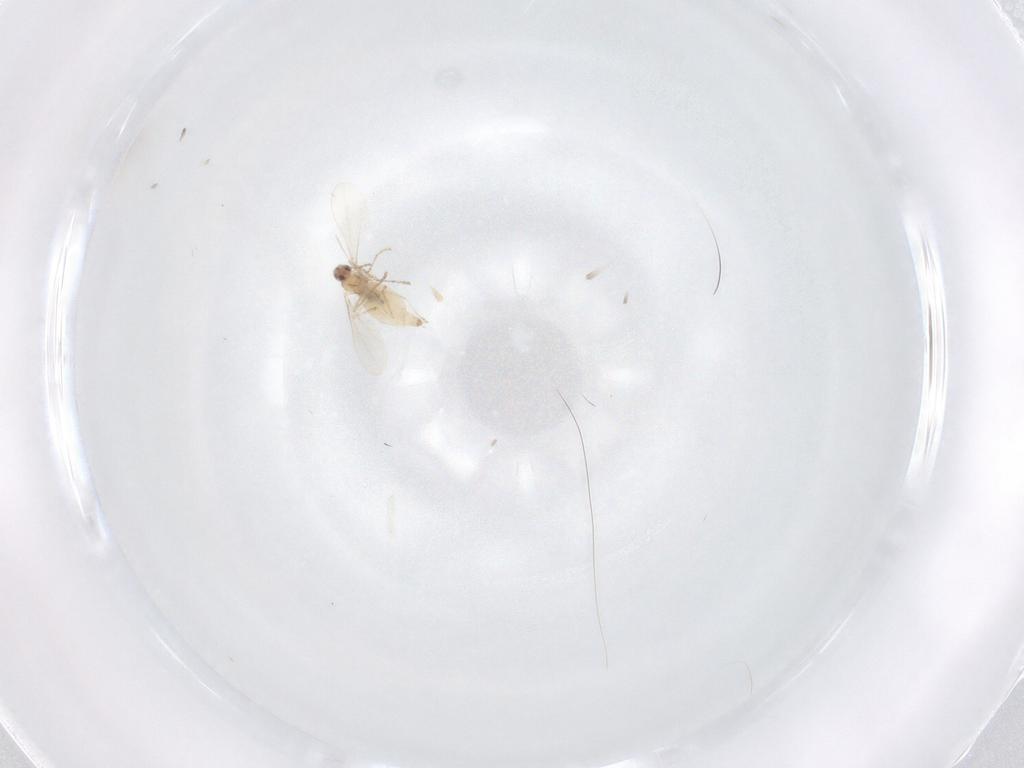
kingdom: Animalia
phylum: Arthropoda
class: Insecta
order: Diptera
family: Sciaridae
